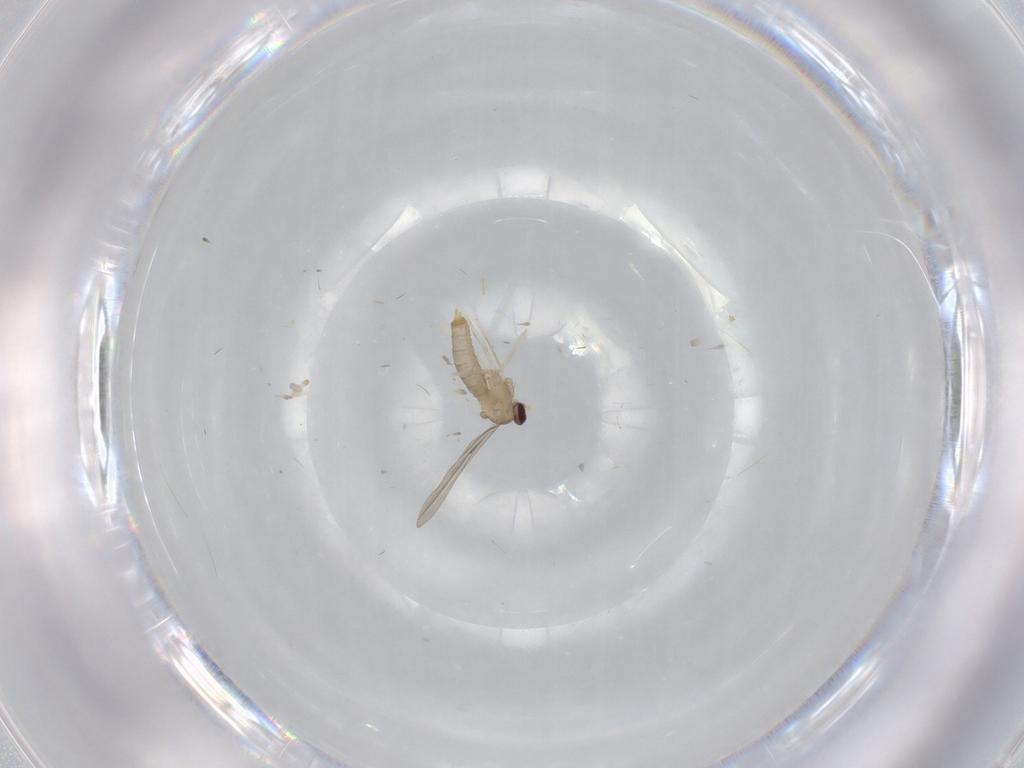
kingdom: Animalia
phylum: Arthropoda
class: Insecta
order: Diptera
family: Cecidomyiidae
